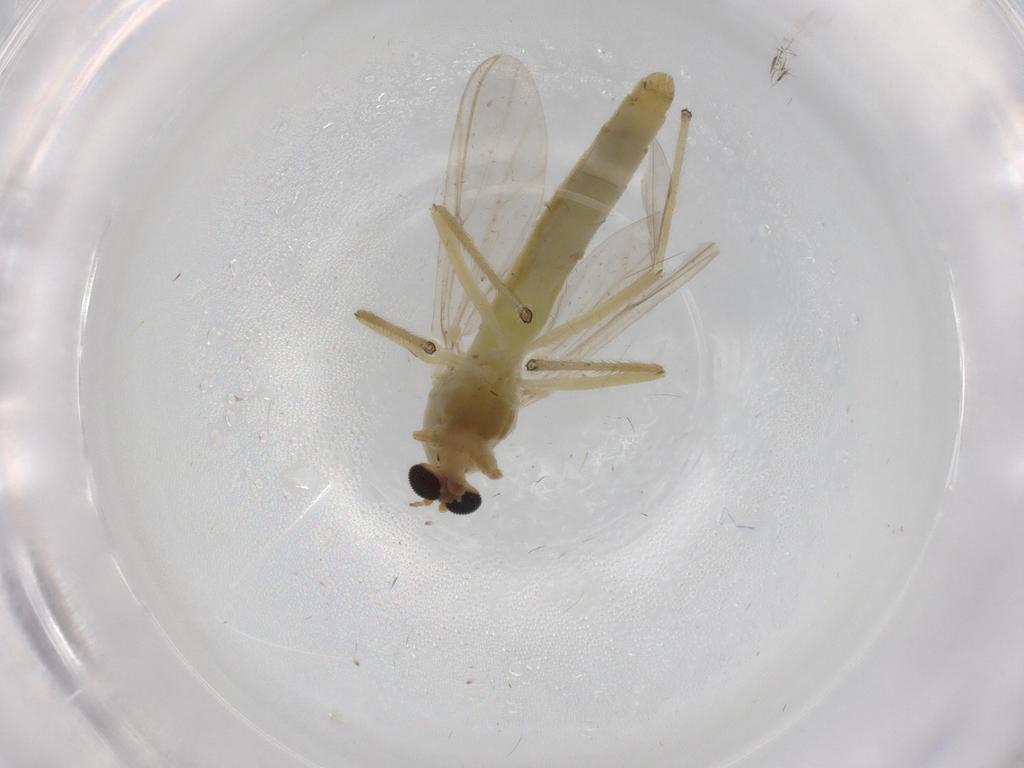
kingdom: Animalia
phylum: Arthropoda
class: Insecta
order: Diptera
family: Chironomidae
